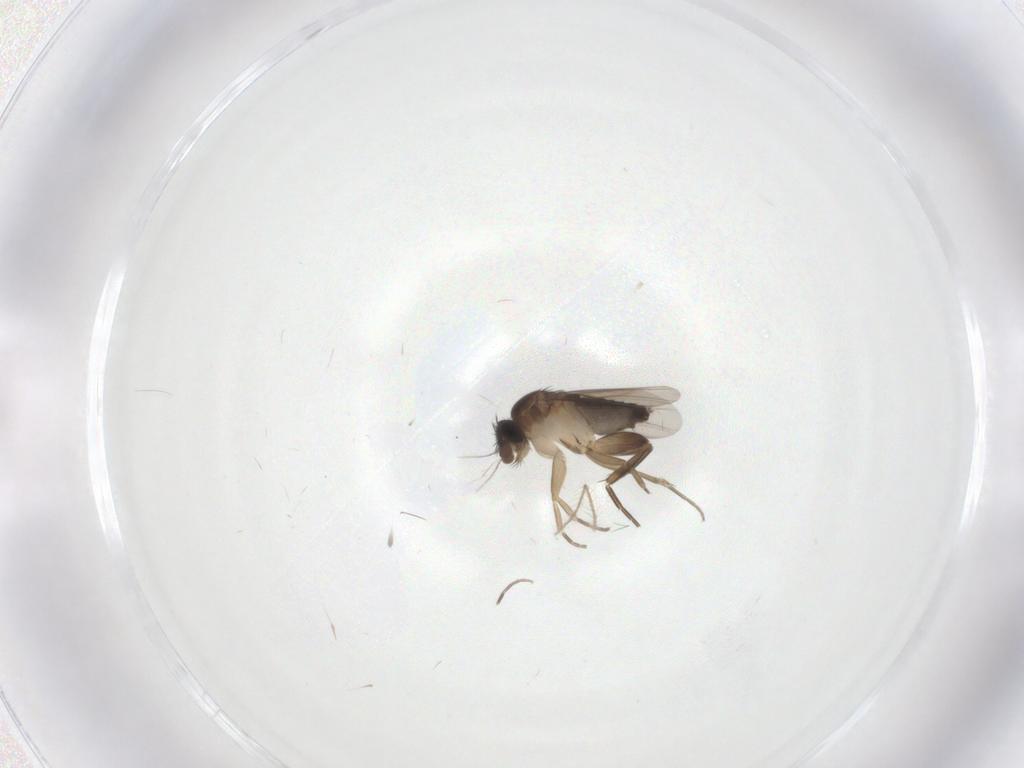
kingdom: Animalia
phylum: Arthropoda
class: Insecta
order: Diptera
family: Phoridae
